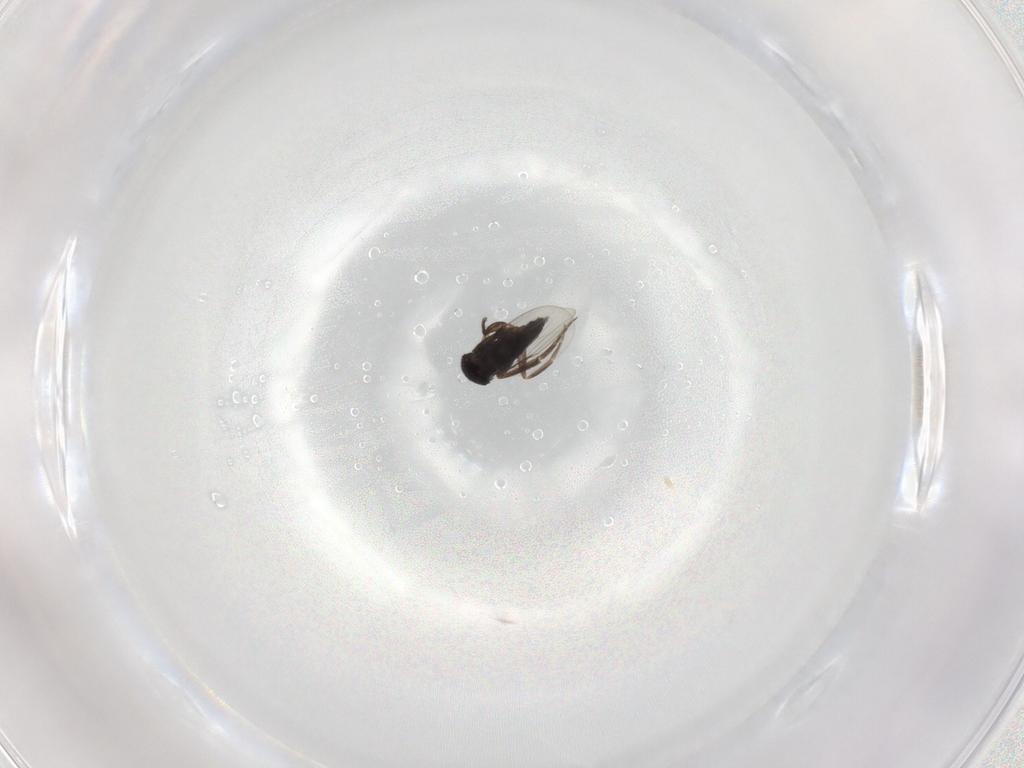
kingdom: Animalia
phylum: Arthropoda
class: Insecta
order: Diptera
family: Phoridae
